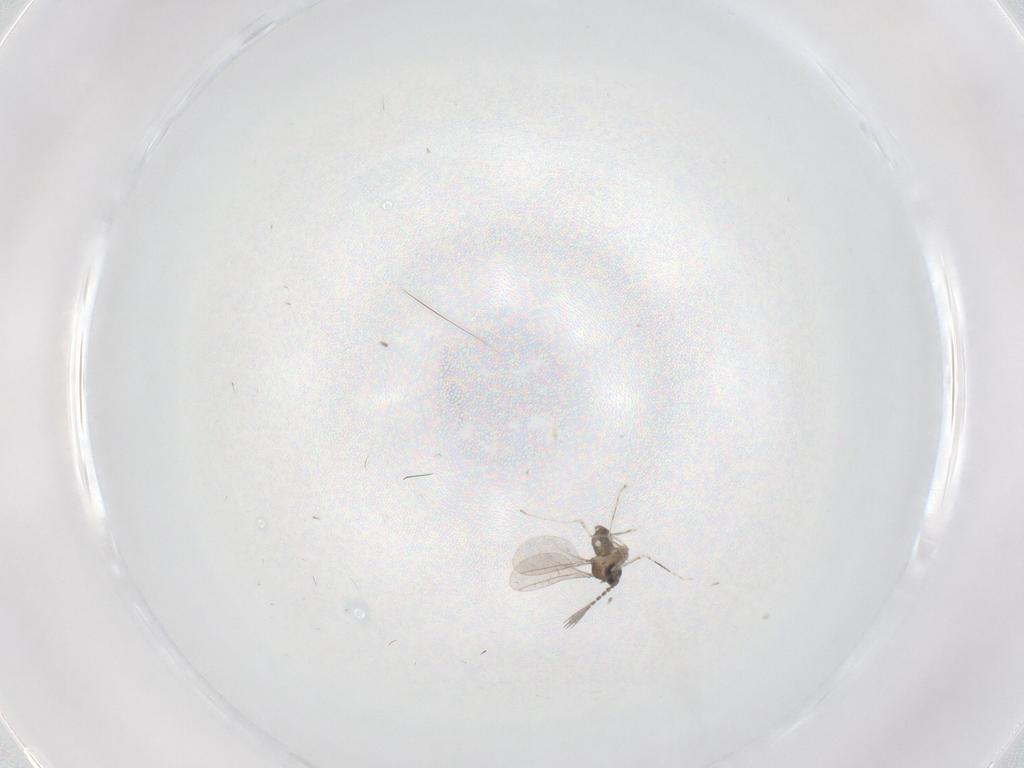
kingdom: Animalia
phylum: Arthropoda
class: Insecta
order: Diptera
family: Cecidomyiidae
